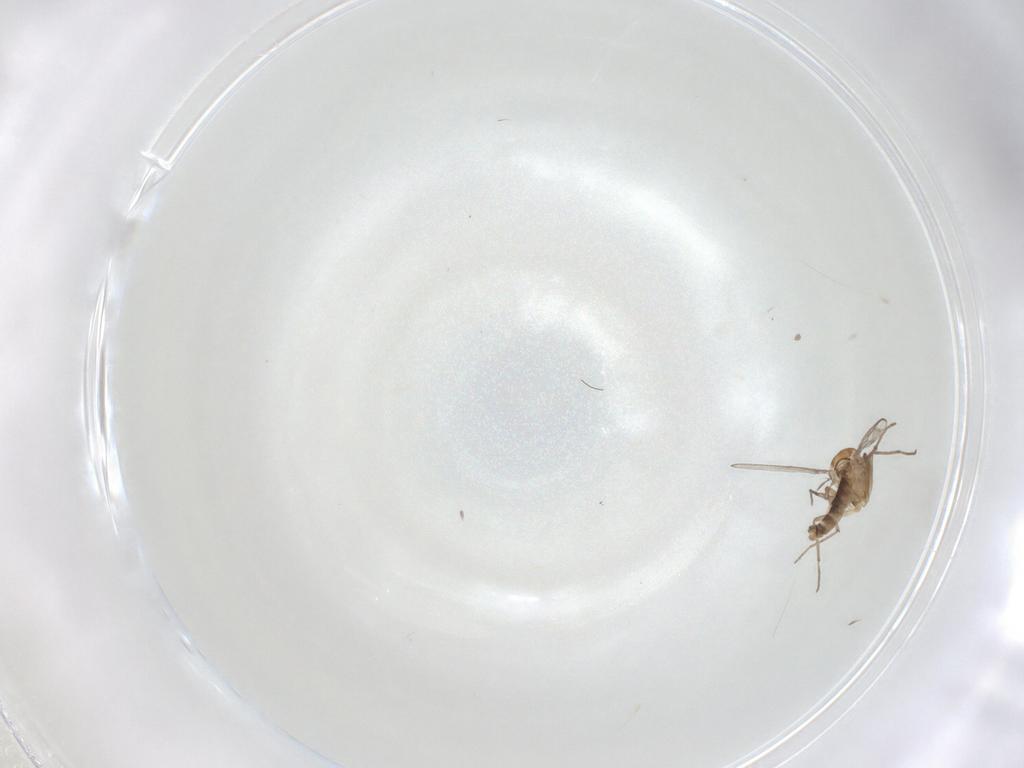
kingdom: Animalia
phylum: Arthropoda
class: Insecta
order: Diptera
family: Chironomidae
